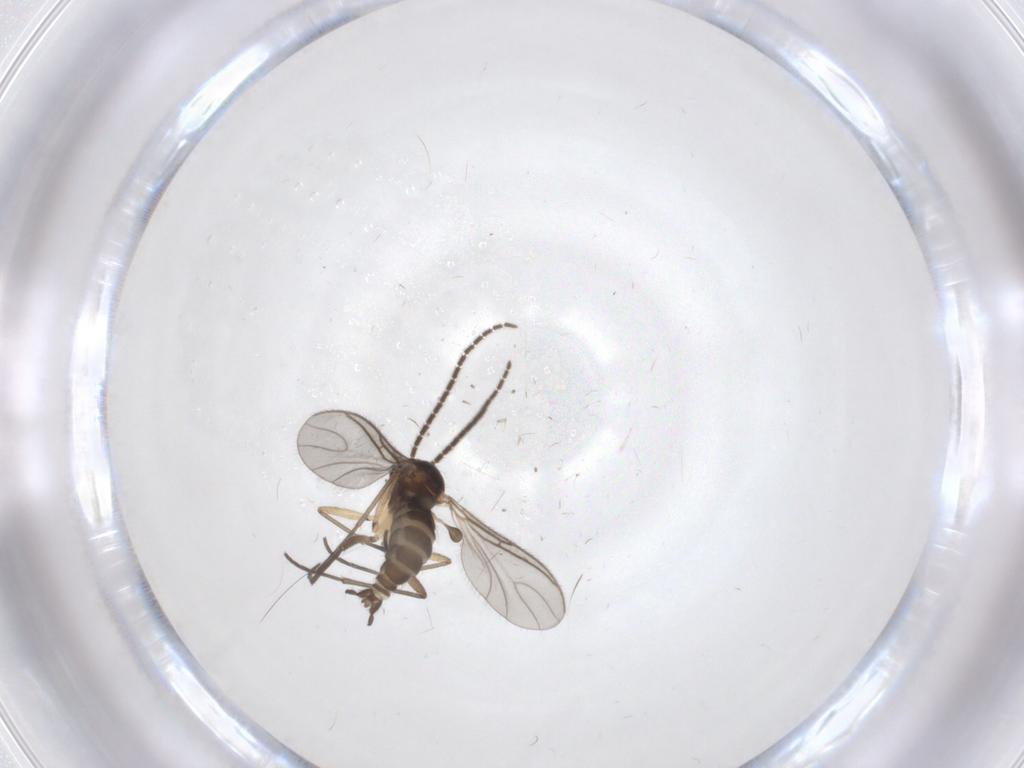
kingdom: Animalia
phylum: Arthropoda
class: Insecta
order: Diptera
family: Sciaridae
